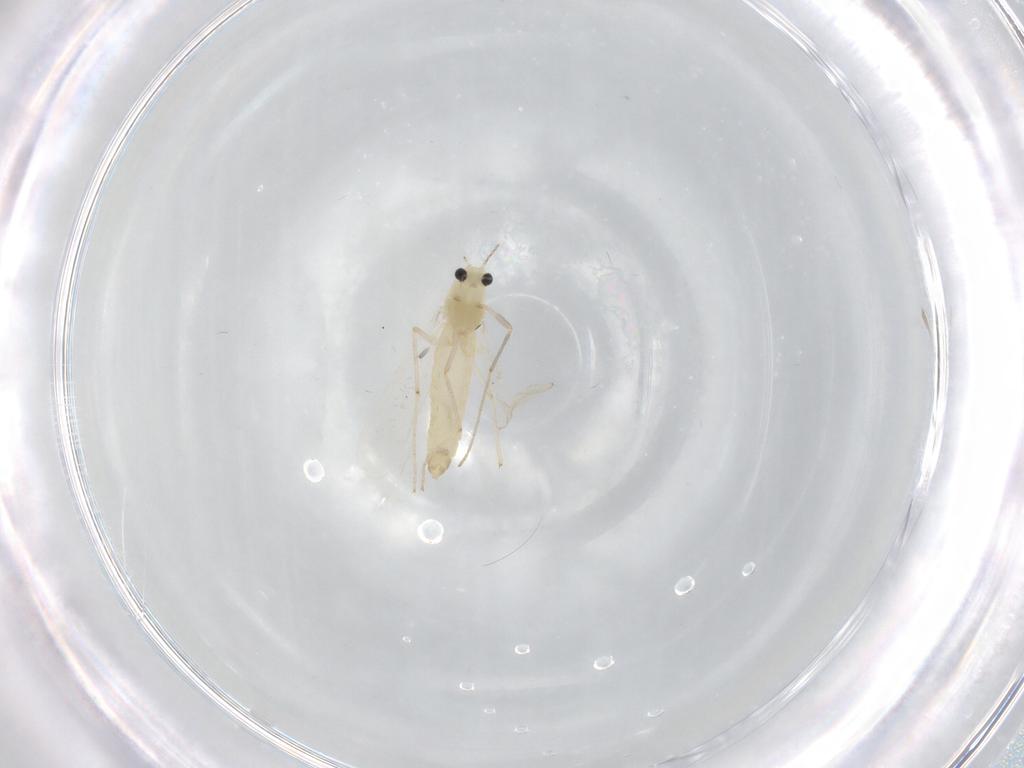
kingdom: Animalia
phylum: Arthropoda
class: Insecta
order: Diptera
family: Chironomidae
